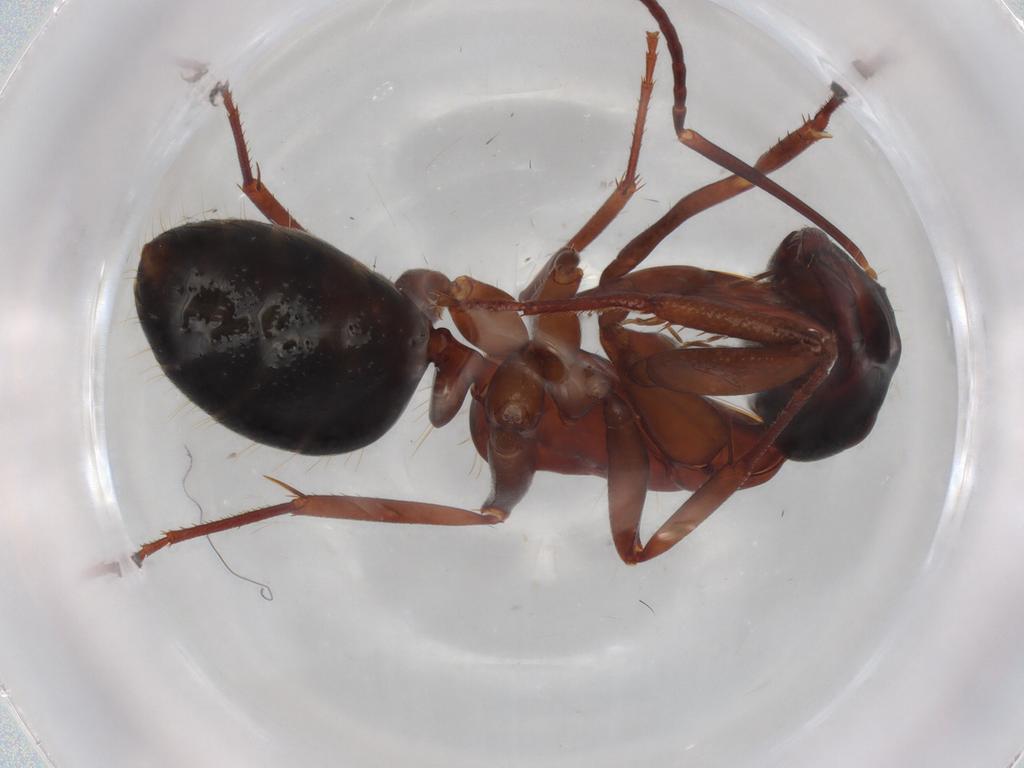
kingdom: Animalia
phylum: Arthropoda
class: Insecta
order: Hymenoptera
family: Formicidae
